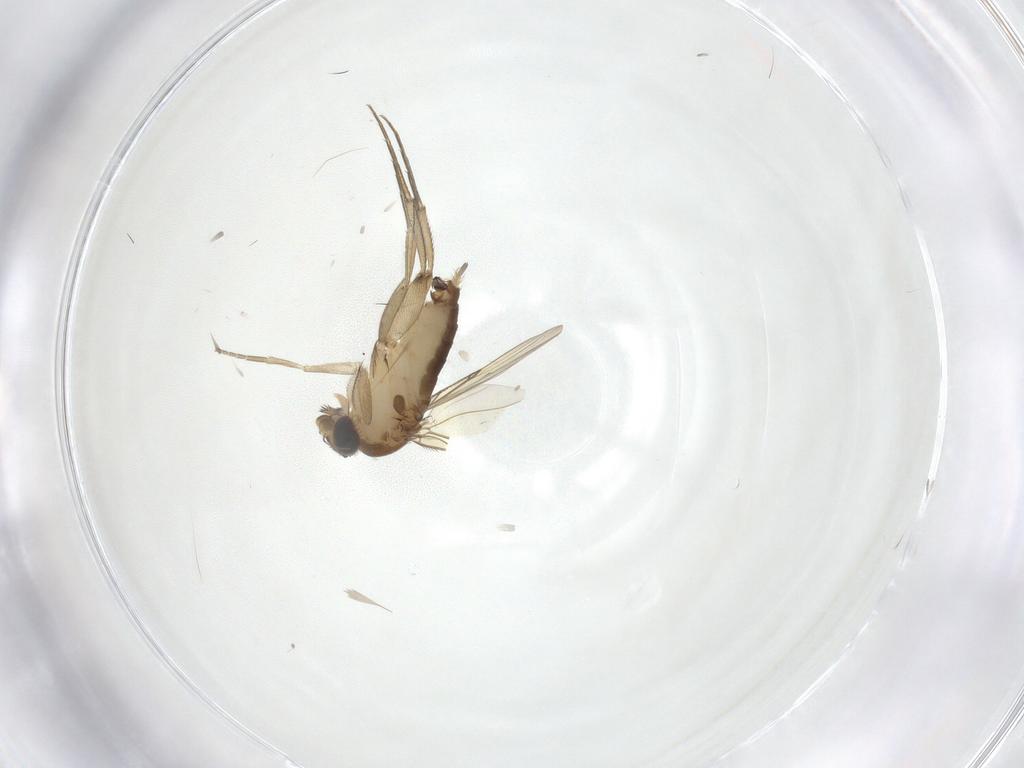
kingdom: Animalia
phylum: Arthropoda
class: Insecta
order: Diptera
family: Phoridae
